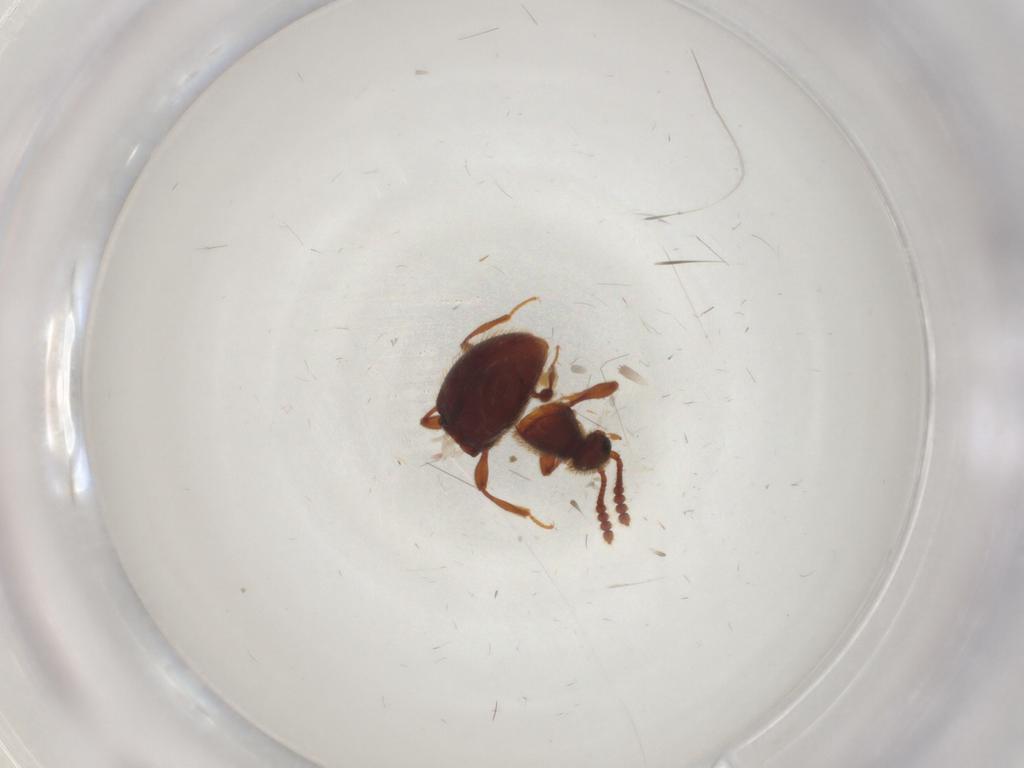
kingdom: Animalia
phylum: Arthropoda
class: Insecta
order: Coleoptera
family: Staphylinidae
